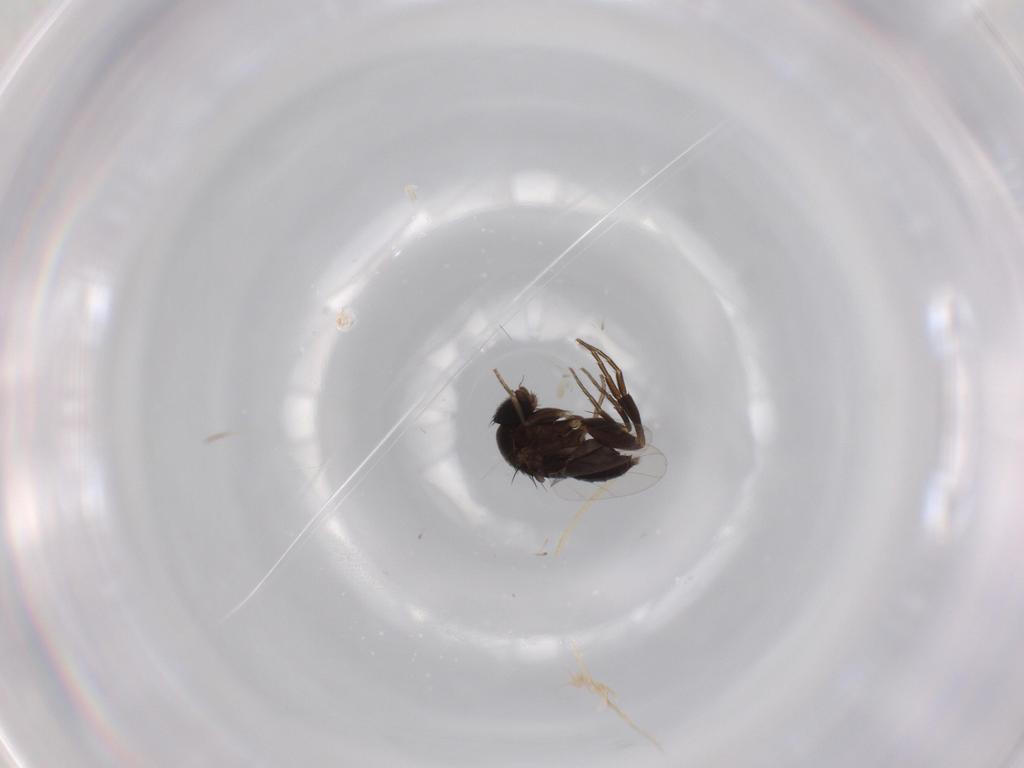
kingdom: Animalia
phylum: Arthropoda
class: Insecta
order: Diptera
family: Phoridae
